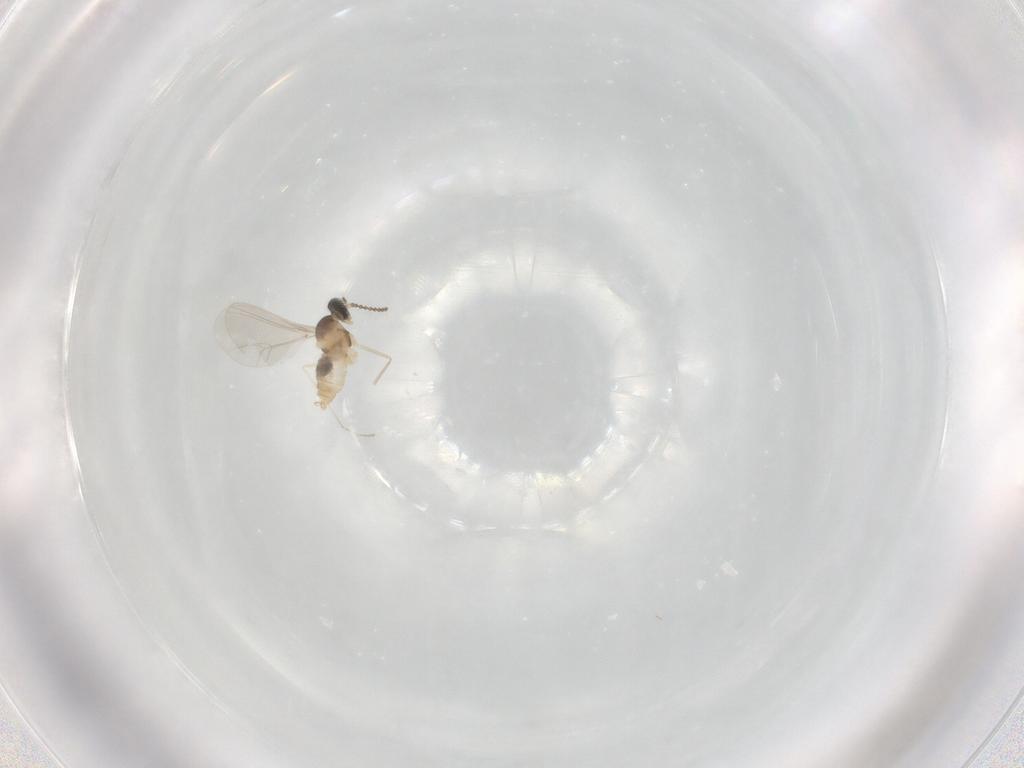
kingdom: Animalia
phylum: Arthropoda
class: Insecta
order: Diptera
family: Cecidomyiidae
